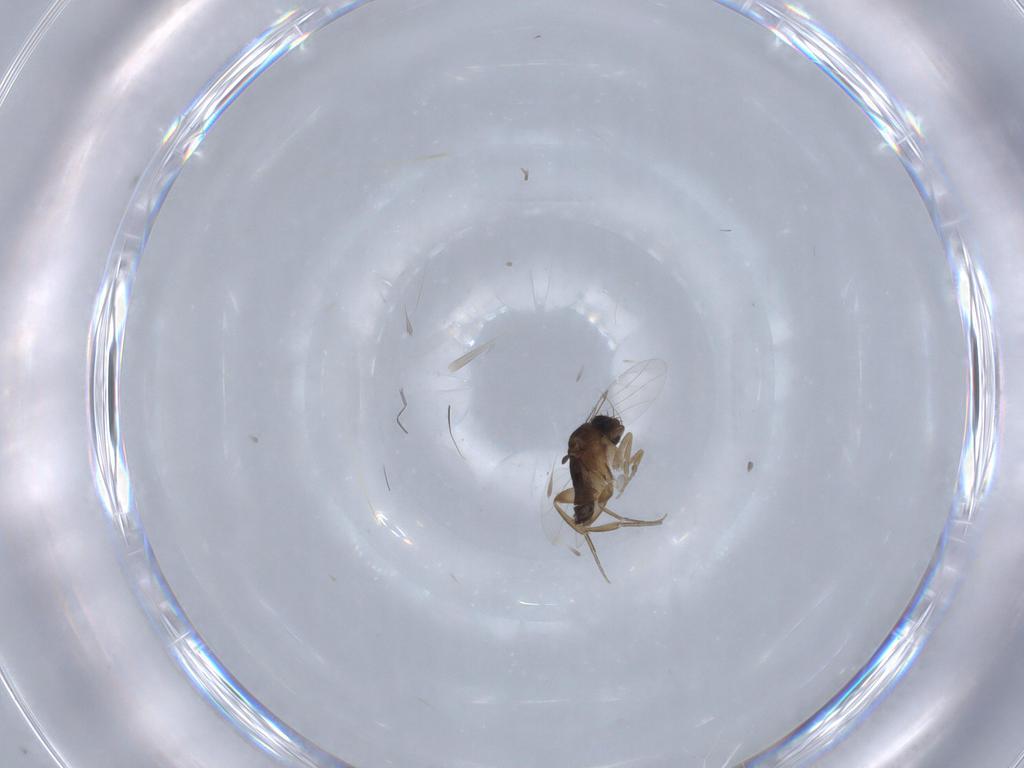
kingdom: Animalia
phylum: Arthropoda
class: Insecta
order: Diptera
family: Phoridae
